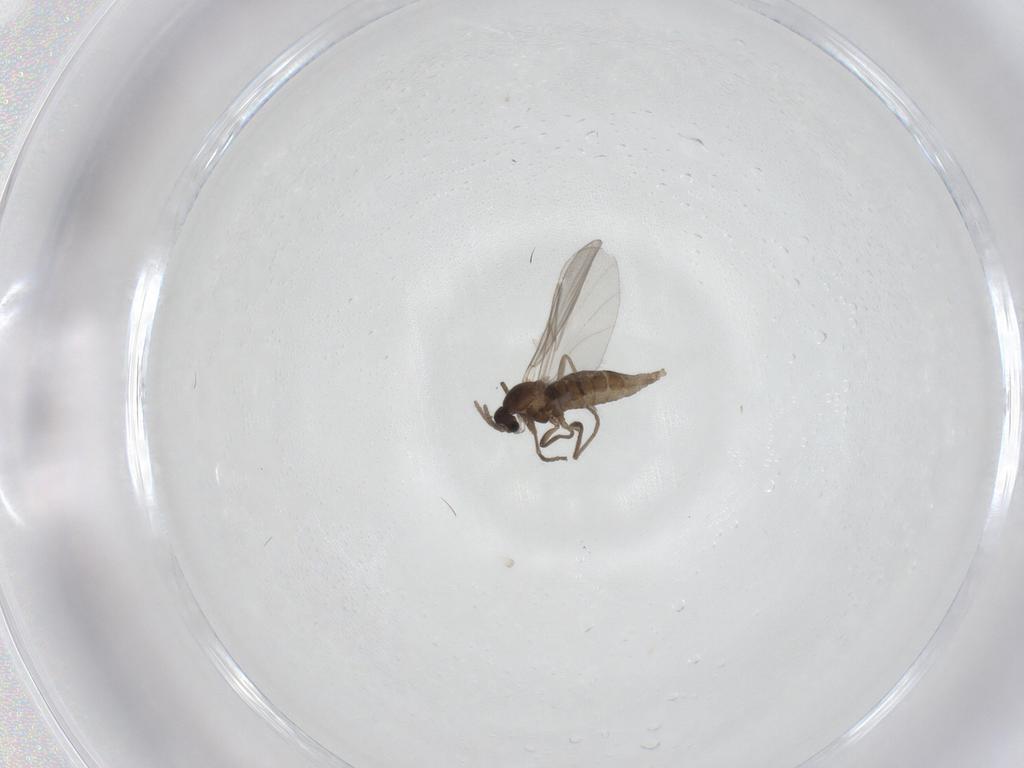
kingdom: Animalia
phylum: Arthropoda
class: Insecta
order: Diptera
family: Cecidomyiidae
